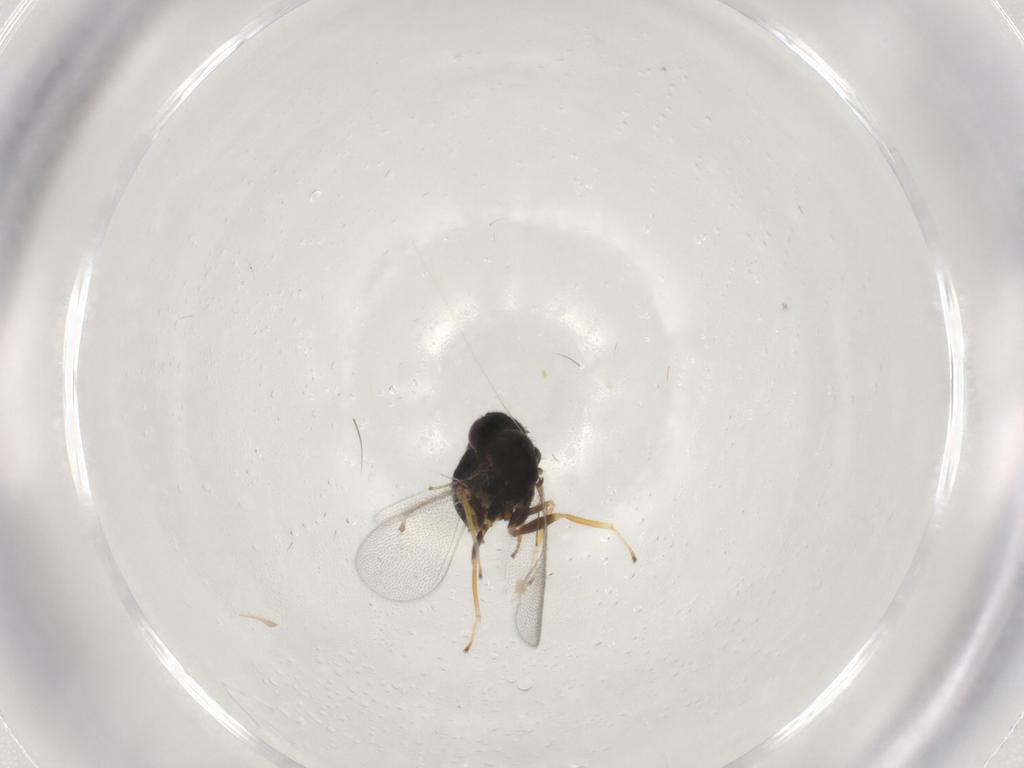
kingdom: Animalia
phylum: Arthropoda
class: Insecta
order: Hymenoptera
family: Eulophidae
